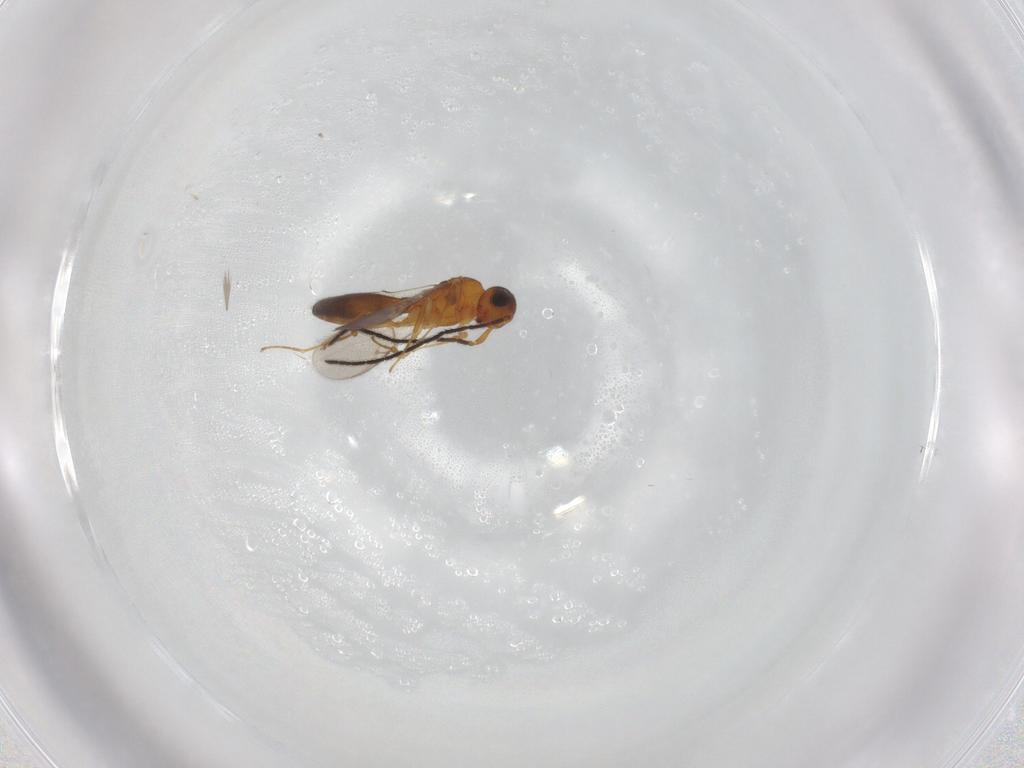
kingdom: Animalia
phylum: Arthropoda
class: Insecta
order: Hymenoptera
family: Scelionidae
